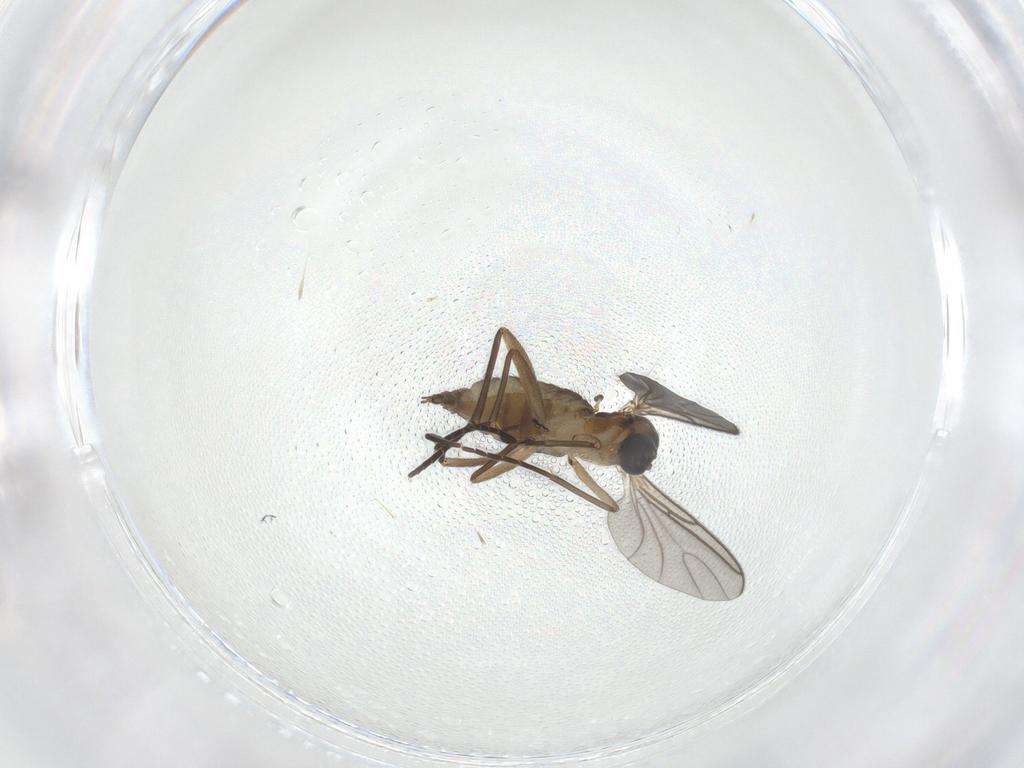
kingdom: Animalia
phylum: Arthropoda
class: Insecta
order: Diptera
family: Sciaridae
